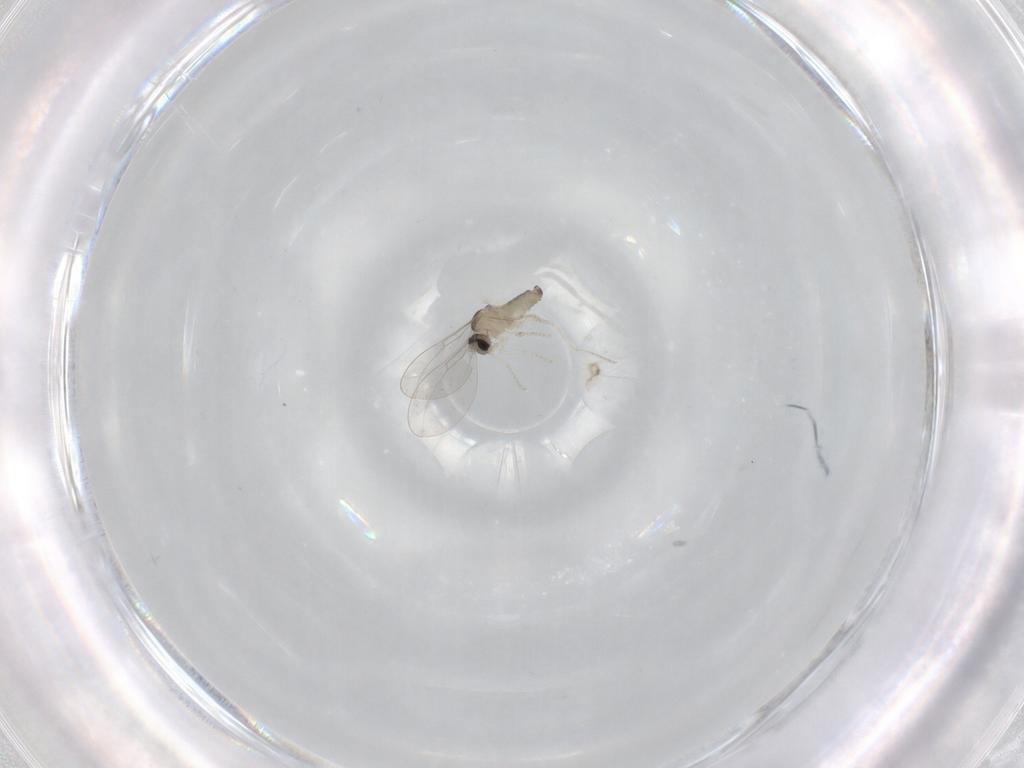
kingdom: Animalia
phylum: Arthropoda
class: Insecta
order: Diptera
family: Cecidomyiidae
